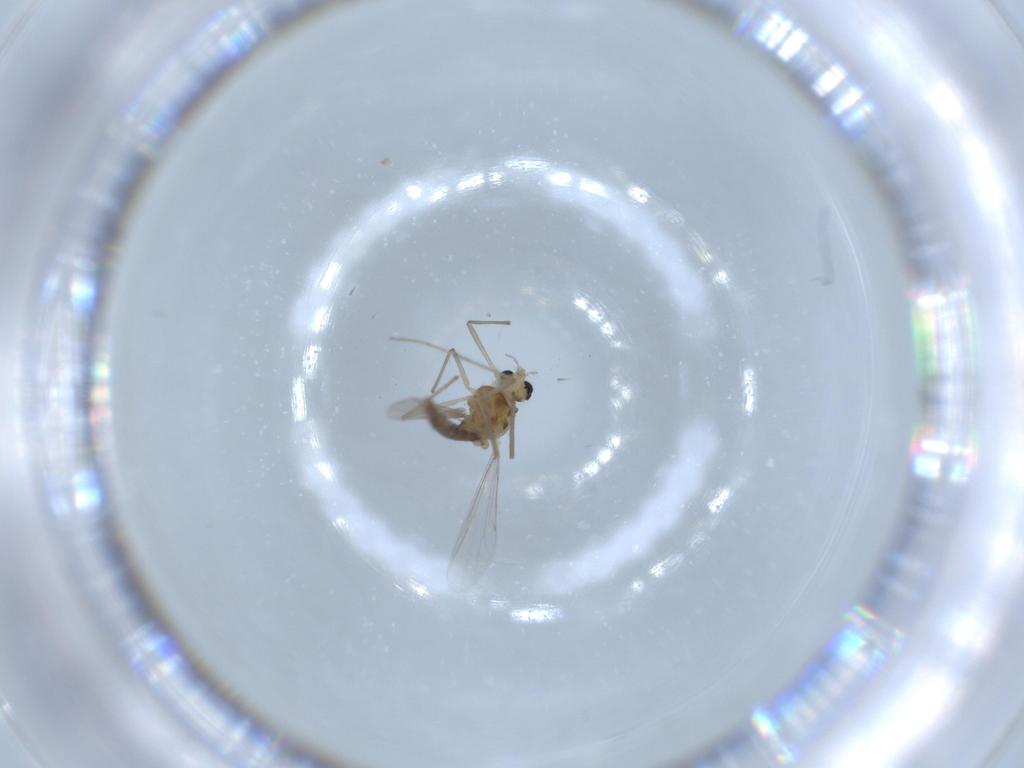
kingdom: Animalia
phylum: Arthropoda
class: Insecta
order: Diptera
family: Chironomidae
